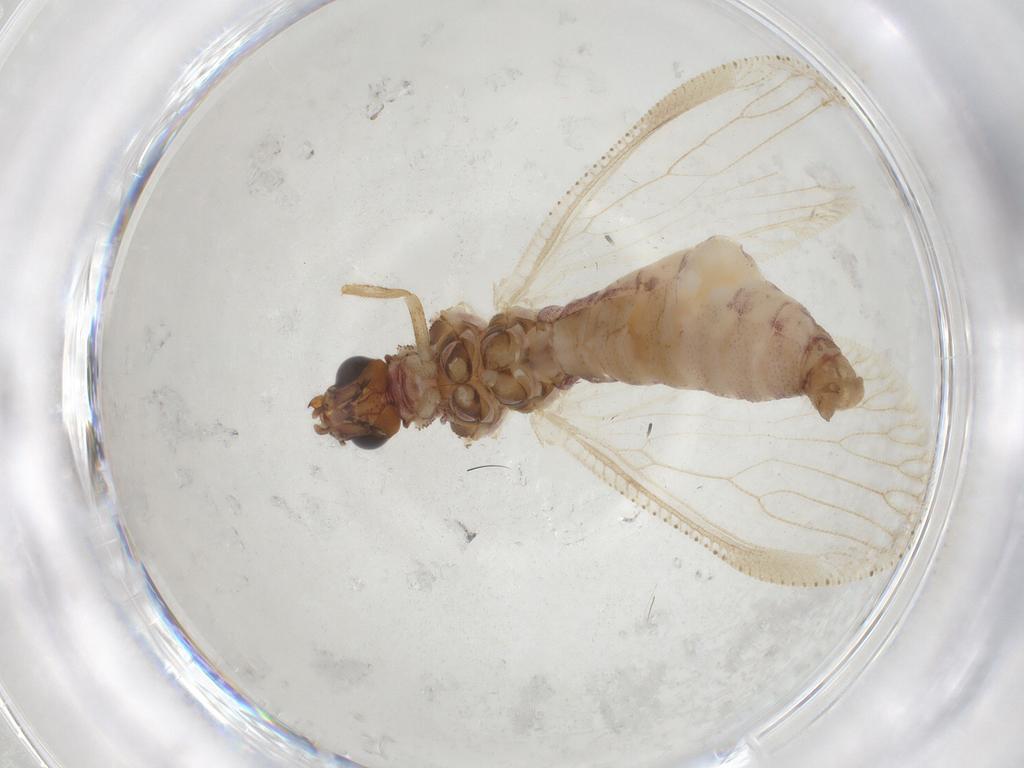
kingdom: Animalia
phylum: Arthropoda
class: Insecta
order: Neuroptera
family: Hemerobiidae
